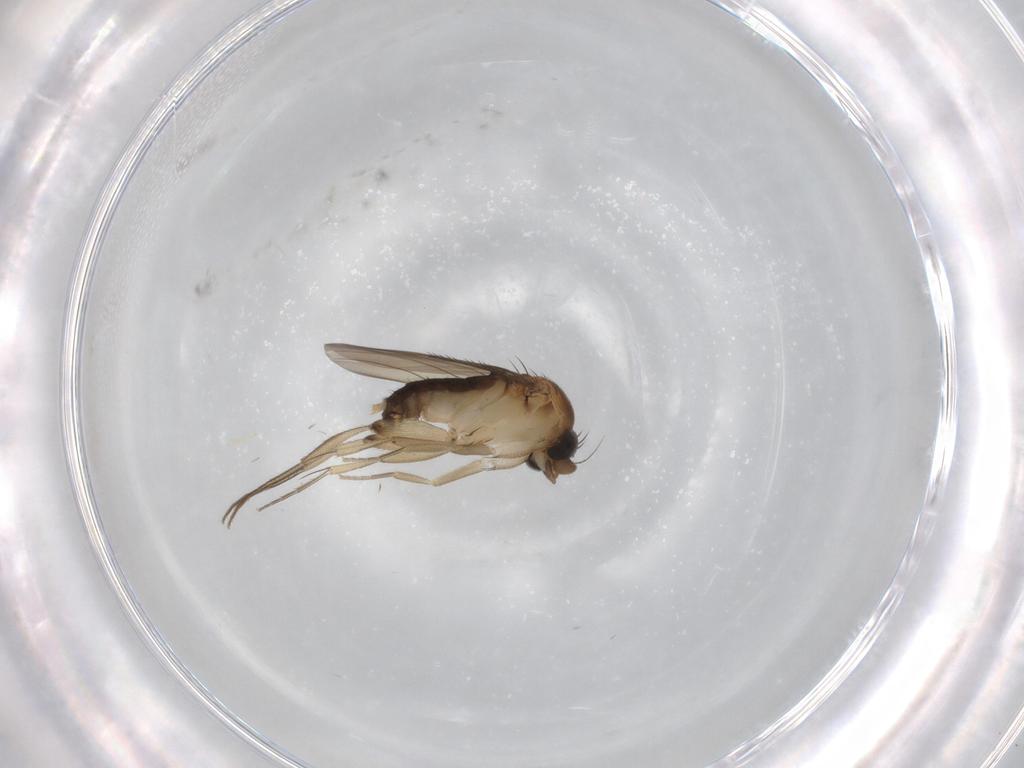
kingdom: Animalia
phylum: Arthropoda
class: Insecta
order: Diptera
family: Phoridae
